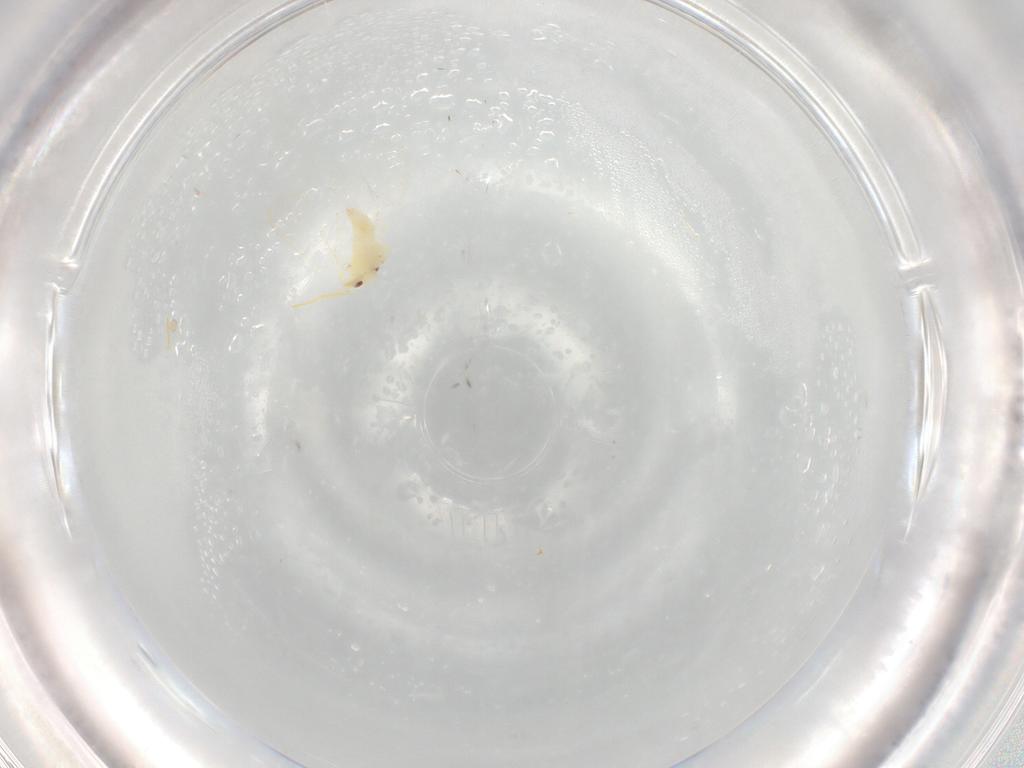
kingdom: Animalia
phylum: Arthropoda
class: Insecta
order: Hemiptera
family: Aleyrodidae
